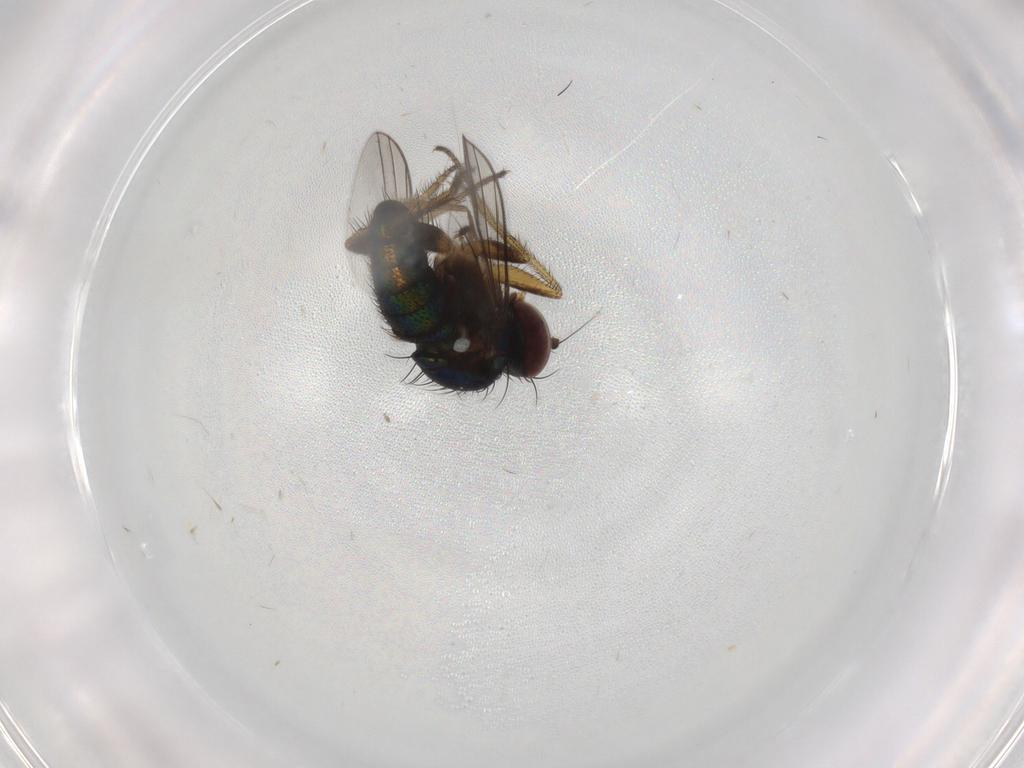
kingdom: Animalia
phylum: Arthropoda
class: Insecta
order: Diptera
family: Dolichopodidae
